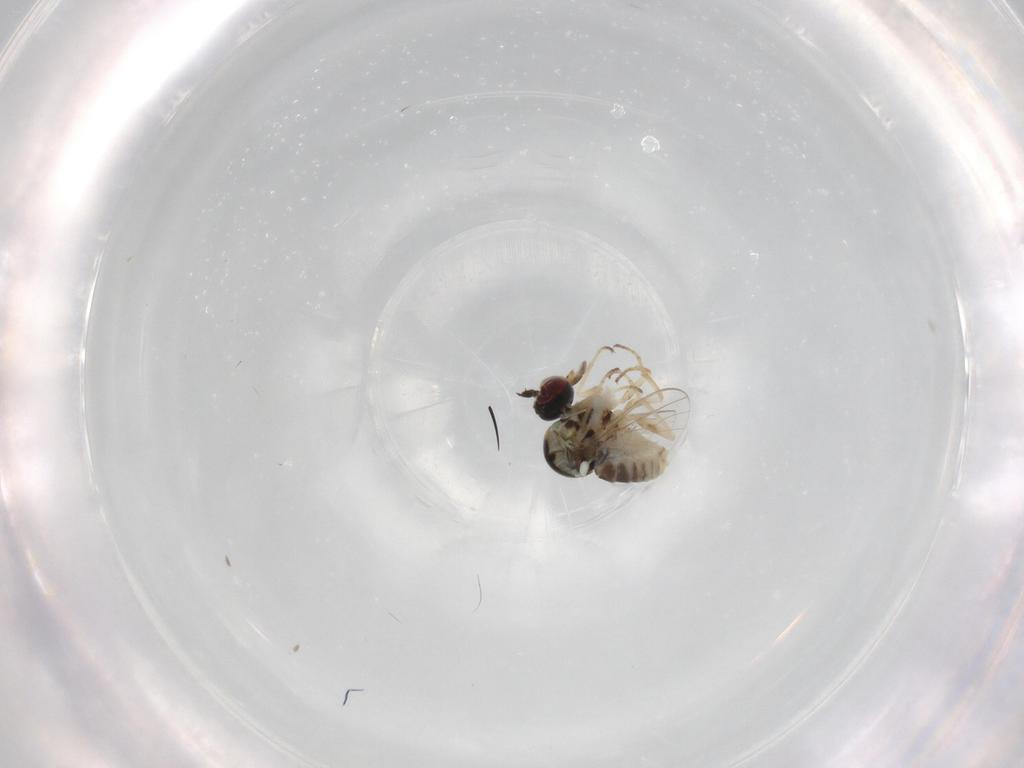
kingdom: Animalia
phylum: Arthropoda
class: Insecta
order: Diptera
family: Bombyliidae
